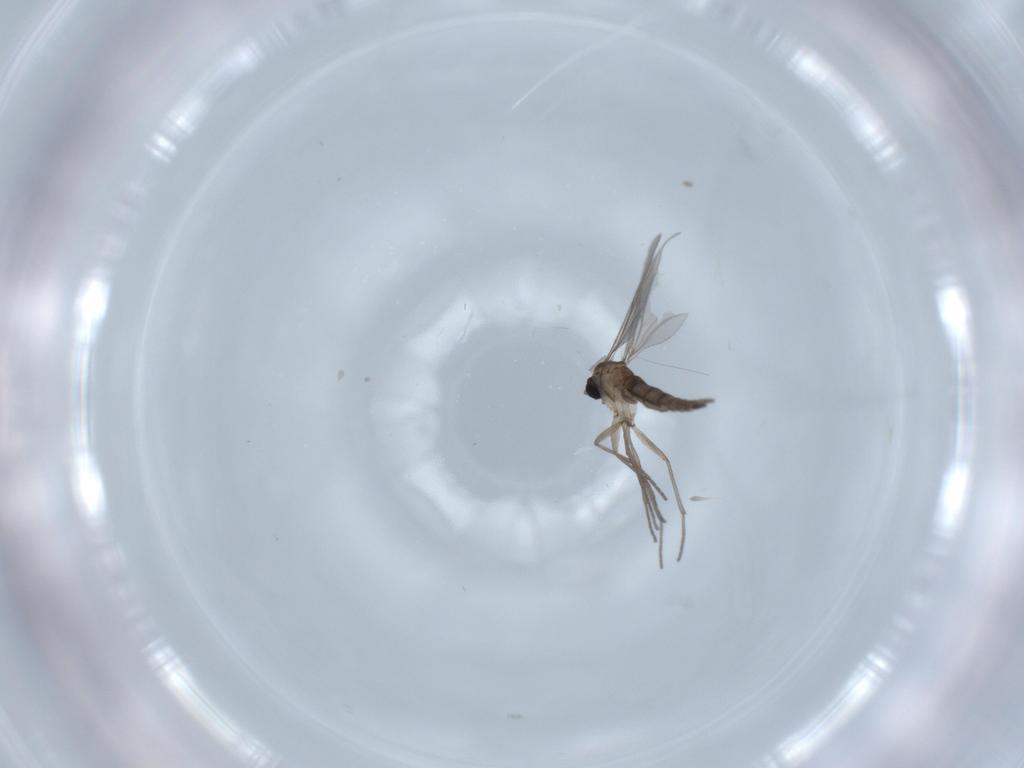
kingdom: Animalia
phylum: Arthropoda
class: Insecta
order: Diptera
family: Sciaridae
